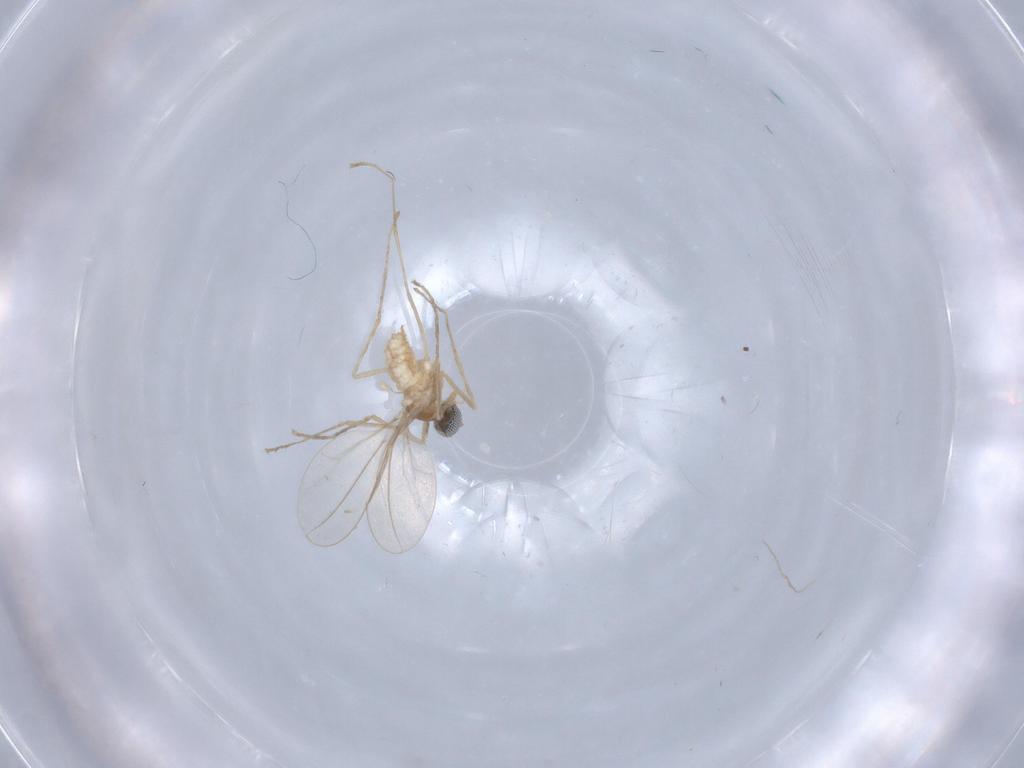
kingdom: Animalia
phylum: Arthropoda
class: Insecta
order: Diptera
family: Cecidomyiidae
